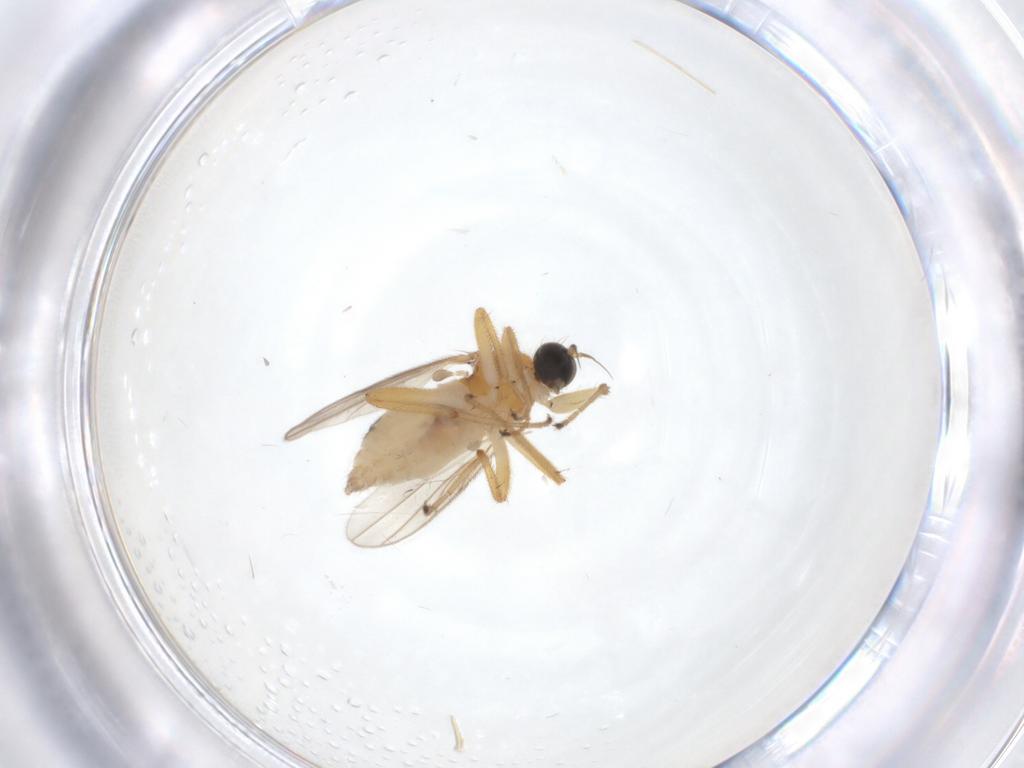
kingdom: Animalia
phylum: Arthropoda
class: Insecta
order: Diptera
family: Hybotidae
